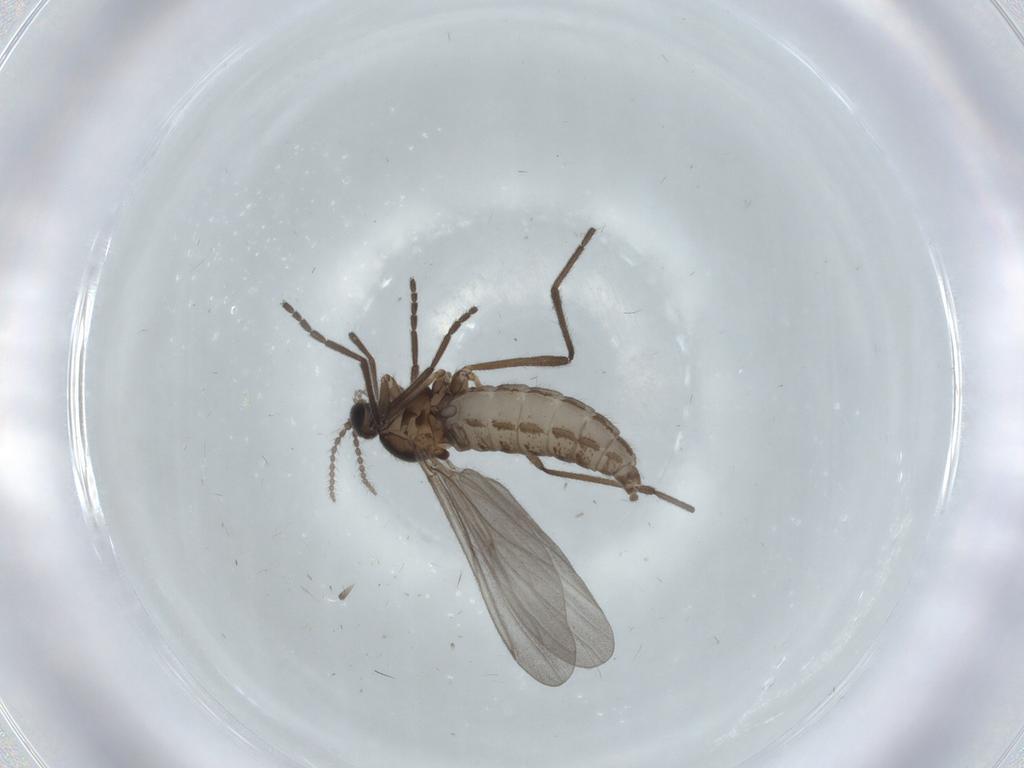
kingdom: Animalia
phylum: Arthropoda
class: Insecta
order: Diptera
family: Cecidomyiidae
